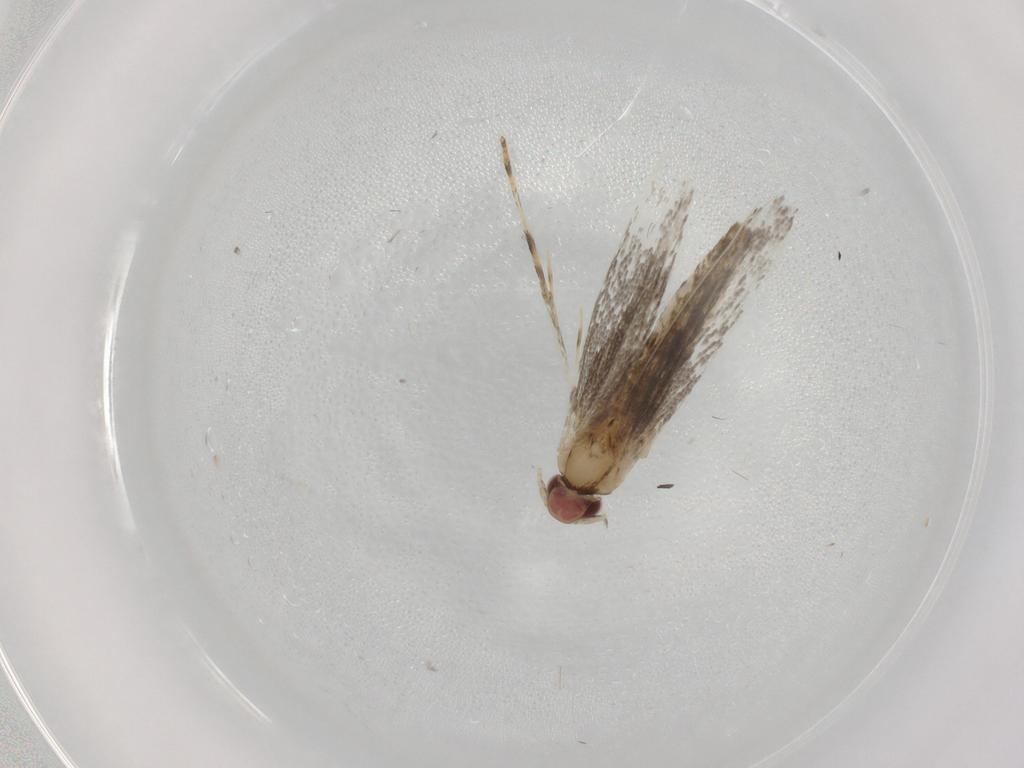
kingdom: Animalia
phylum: Arthropoda
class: Insecta
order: Lepidoptera
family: Gracillariidae
